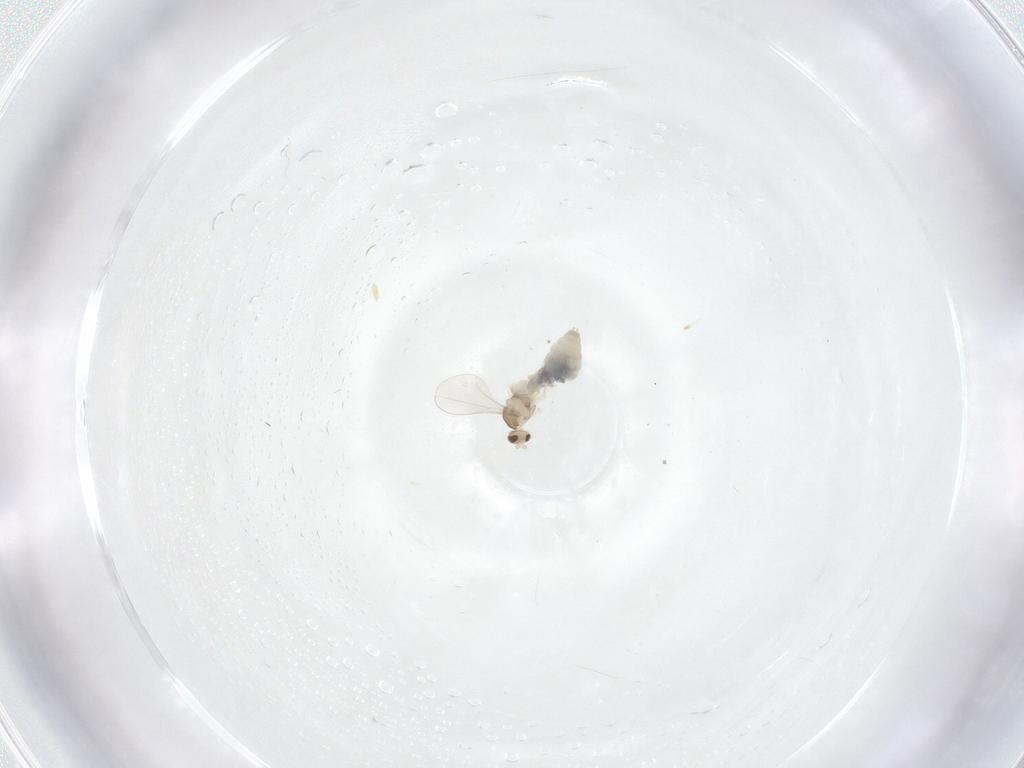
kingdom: Animalia
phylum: Arthropoda
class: Insecta
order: Diptera
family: Cecidomyiidae
